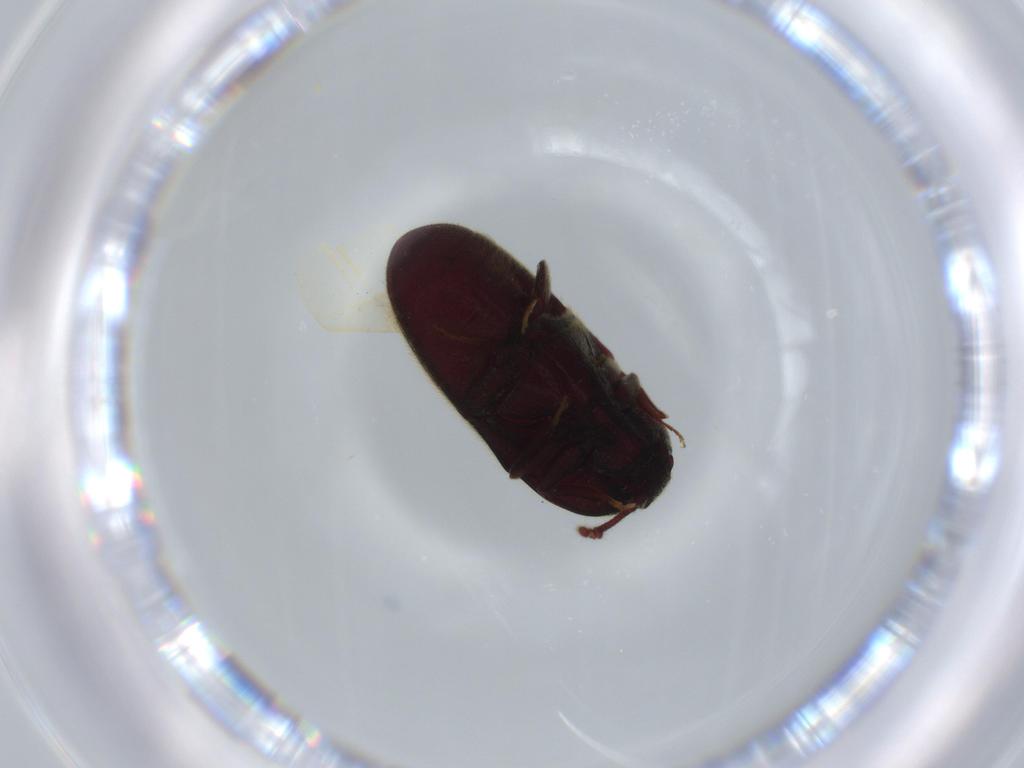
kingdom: Animalia
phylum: Arthropoda
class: Insecta
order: Coleoptera
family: Throscidae
